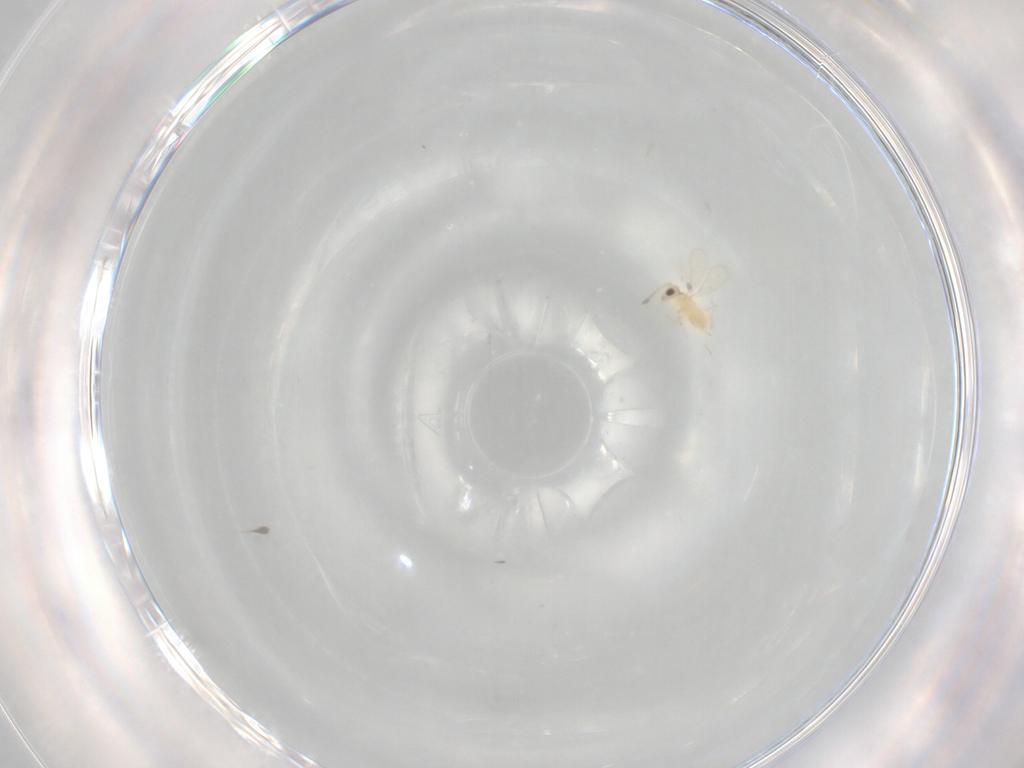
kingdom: Animalia
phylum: Arthropoda
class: Insecta
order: Hymenoptera
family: Aphelinidae
